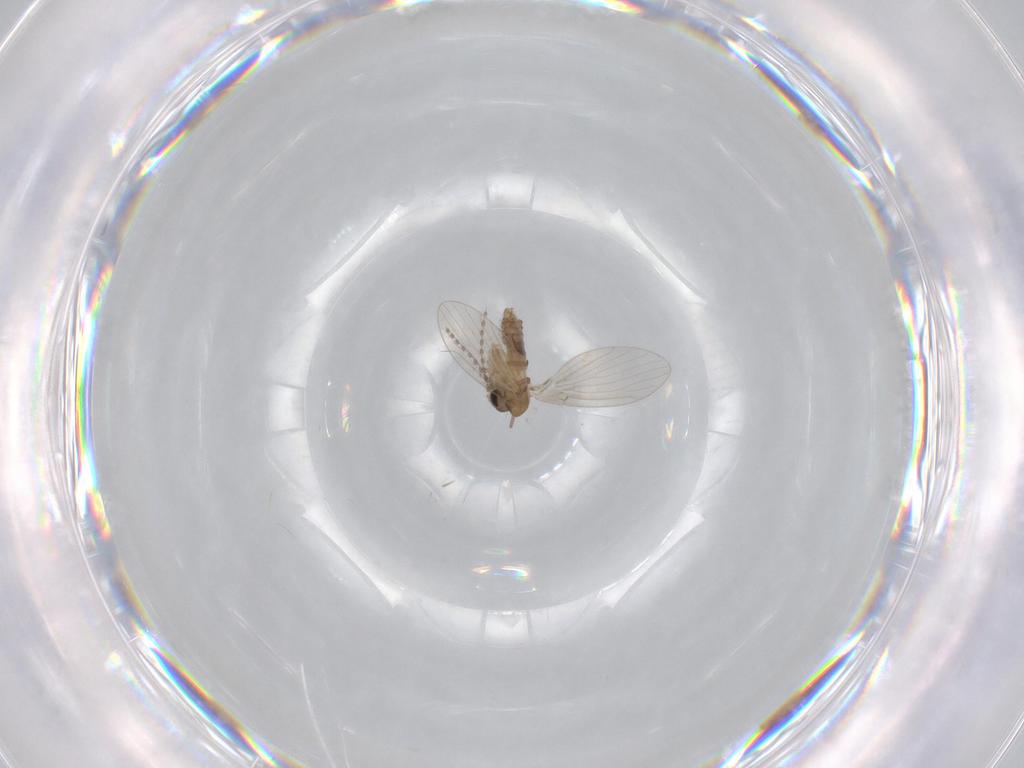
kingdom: Animalia
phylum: Arthropoda
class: Insecta
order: Diptera
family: Psychodidae
